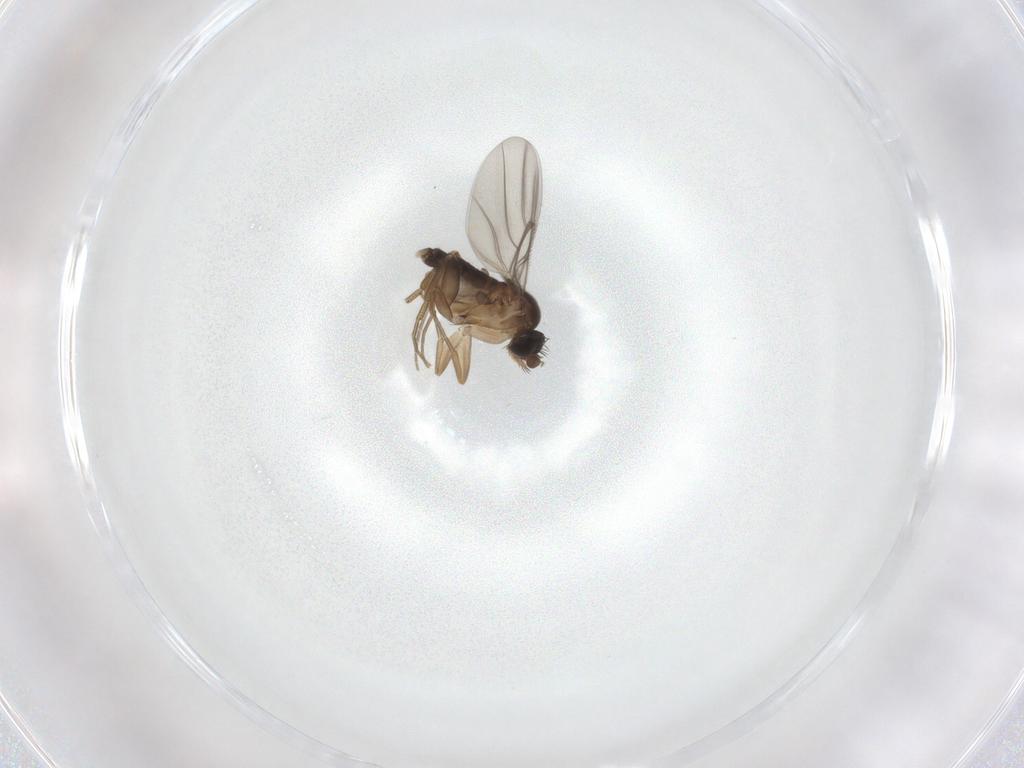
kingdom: Animalia
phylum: Arthropoda
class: Insecta
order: Diptera
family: Phoridae
